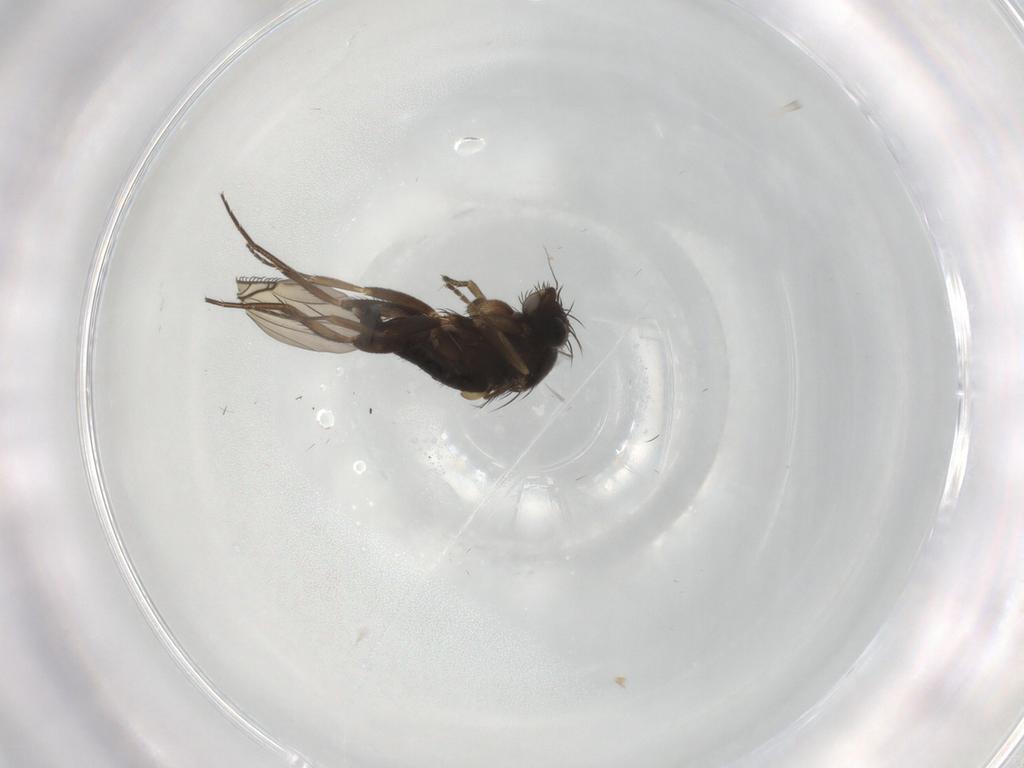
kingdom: Animalia
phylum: Arthropoda
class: Insecta
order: Diptera
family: Phoridae
